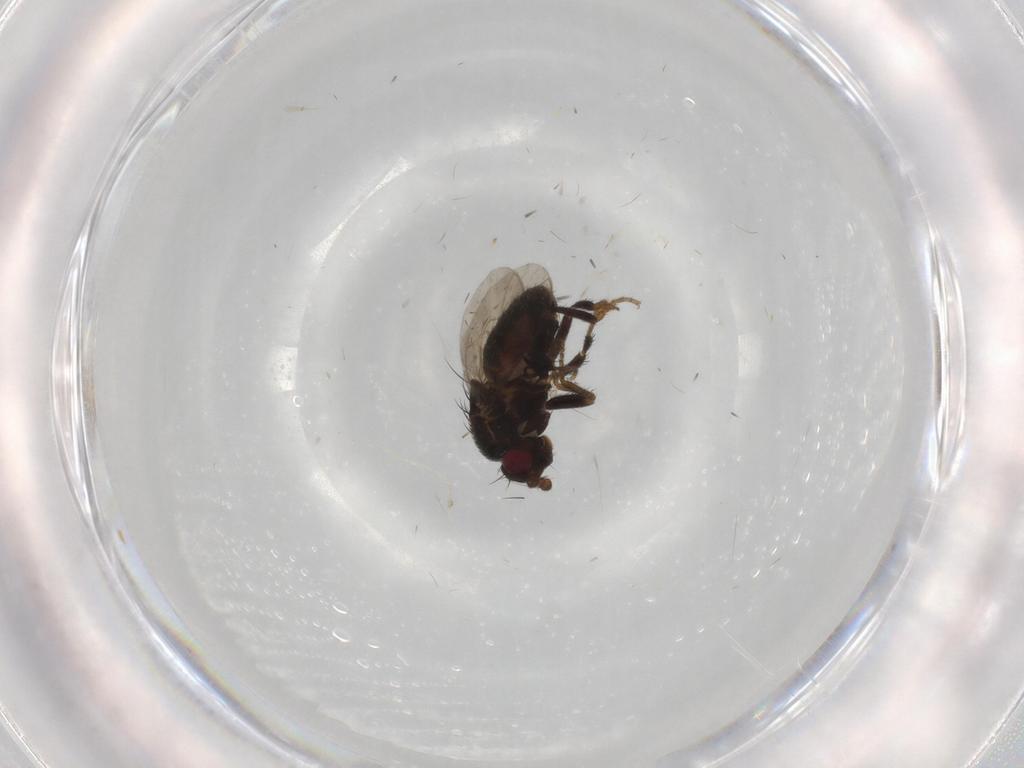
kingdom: Animalia
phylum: Arthropoda
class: Insecta
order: Diptera
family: Sphaeroceridae
